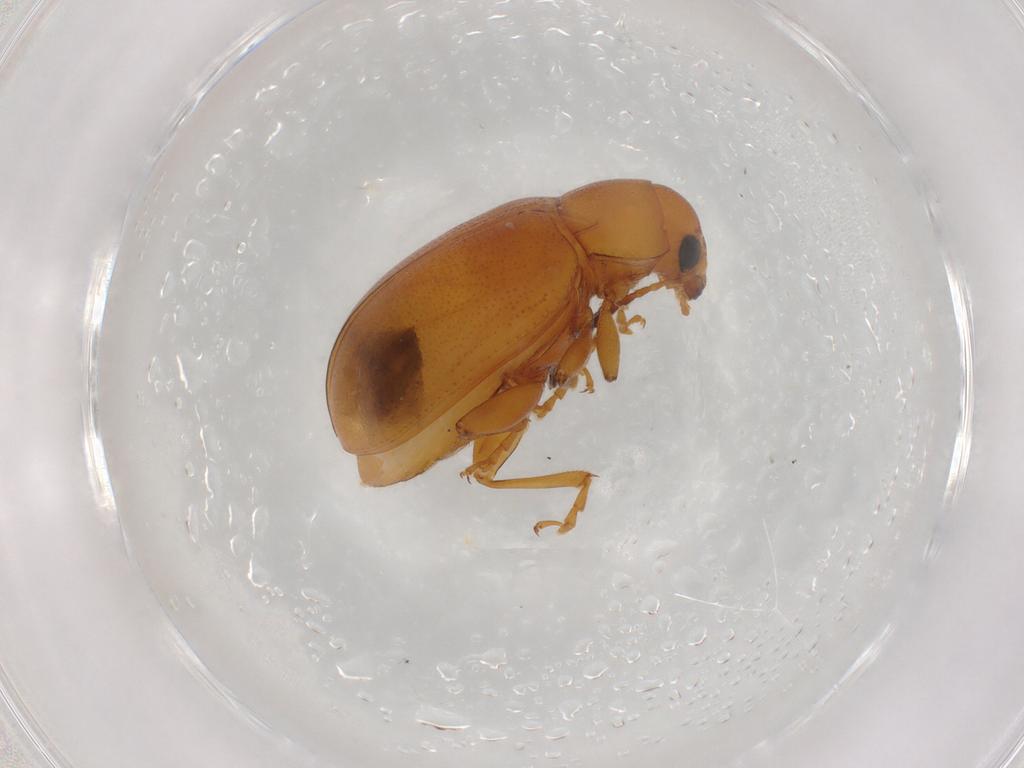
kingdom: Animalia
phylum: Arthropoda
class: Insecta
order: Coleoptera
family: Chrysomelidae
